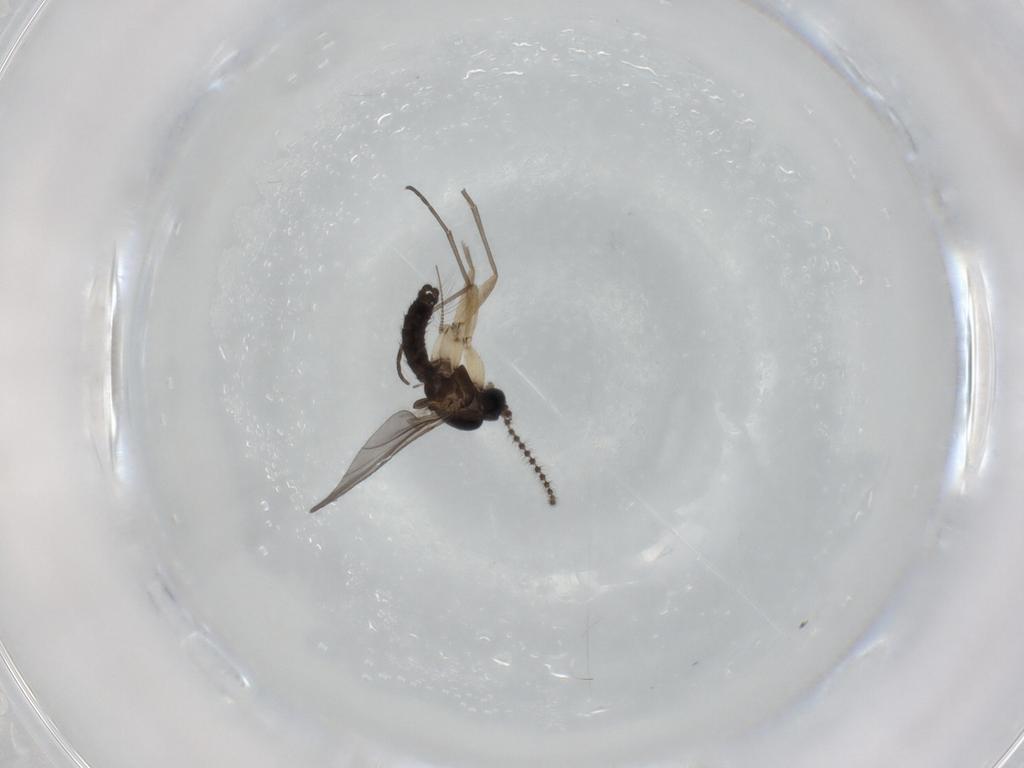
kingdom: Animalia
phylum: Arthropoda
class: Insecta
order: Diptera
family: Sciaridae
